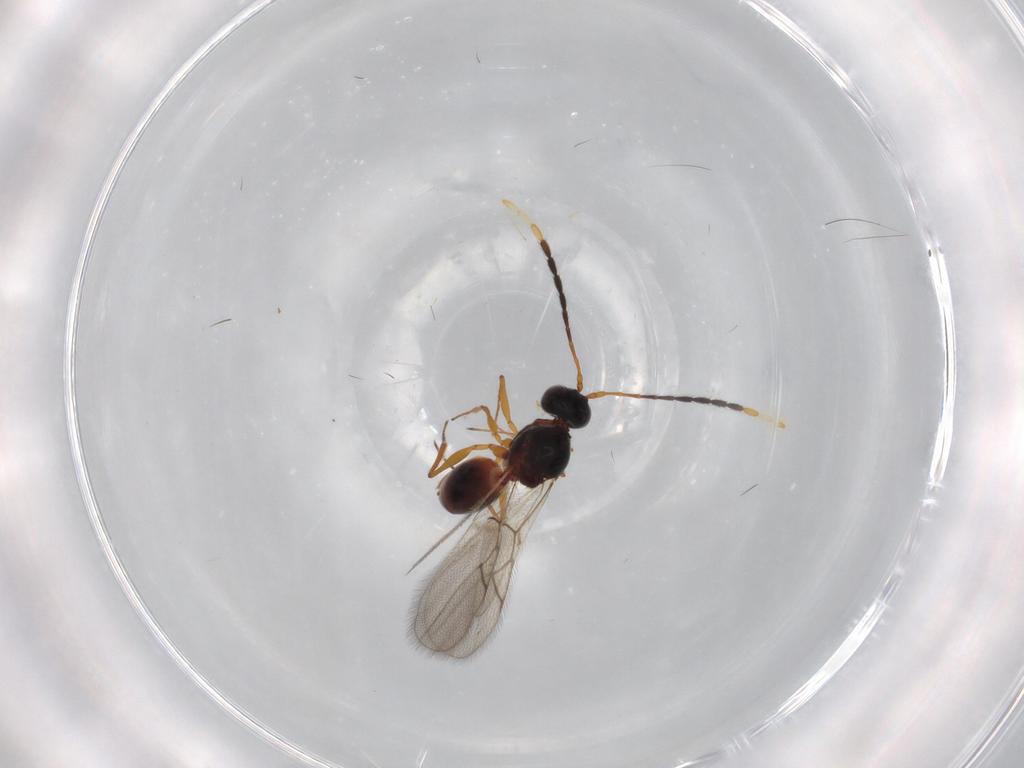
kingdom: Animalia
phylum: Arthropoda
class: Insecta
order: Hymenoptera
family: Figitidae
